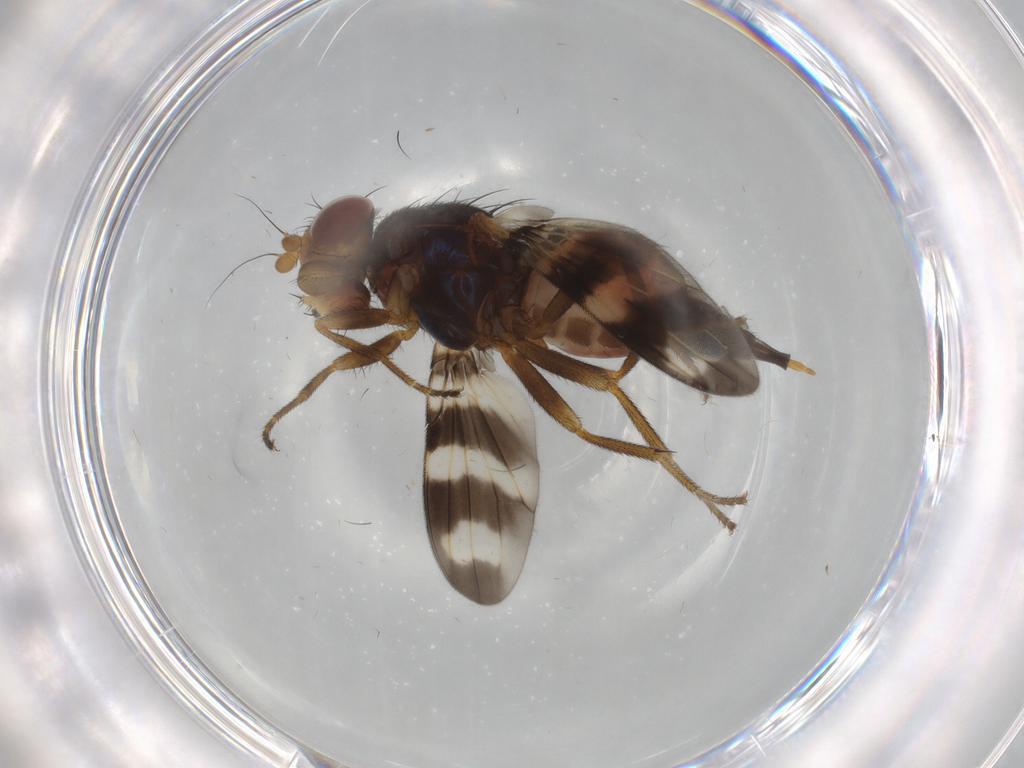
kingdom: Animalia
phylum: Arthropoda
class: Insecta
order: Diptera
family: Ulidiidae
